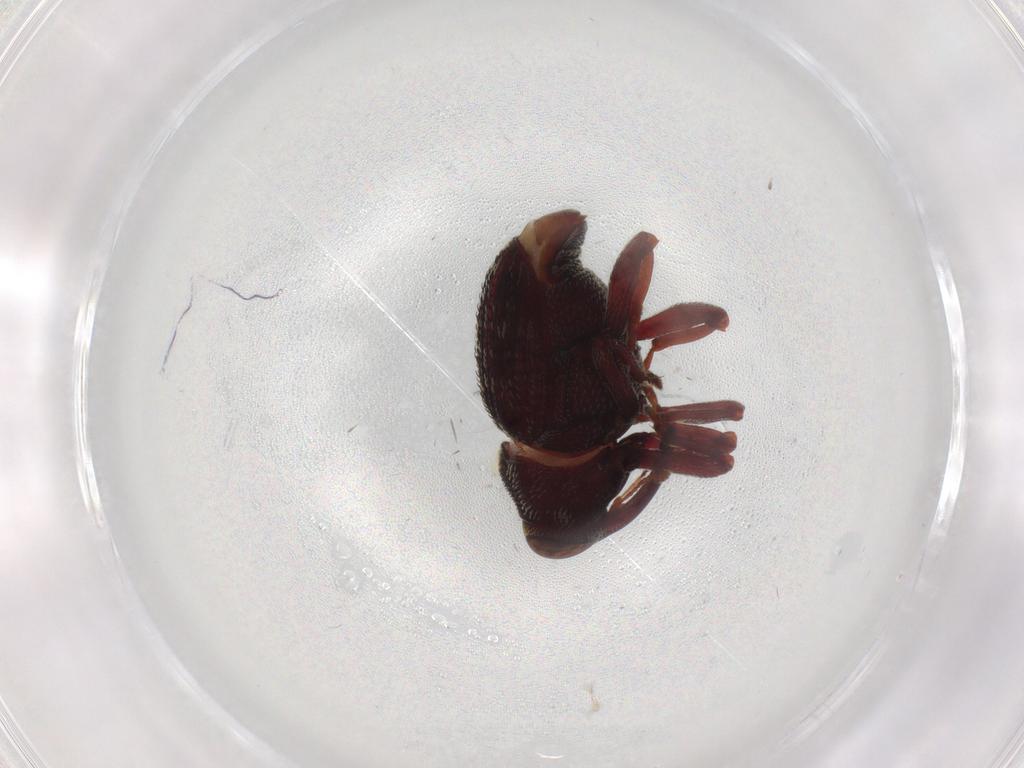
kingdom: Animalia
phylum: Arthropoda
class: Insecta
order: Coleoptera
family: Curculionidae
